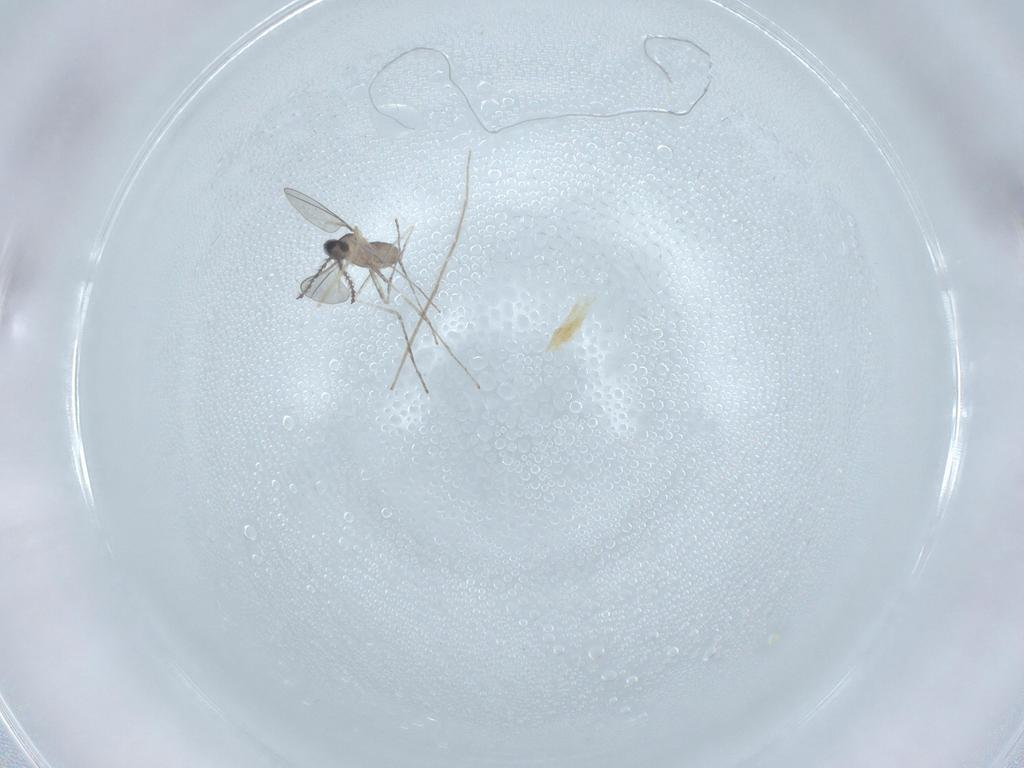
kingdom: Animalia
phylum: Arthropoda
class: Insecta
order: Diptera
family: Chironomidae
